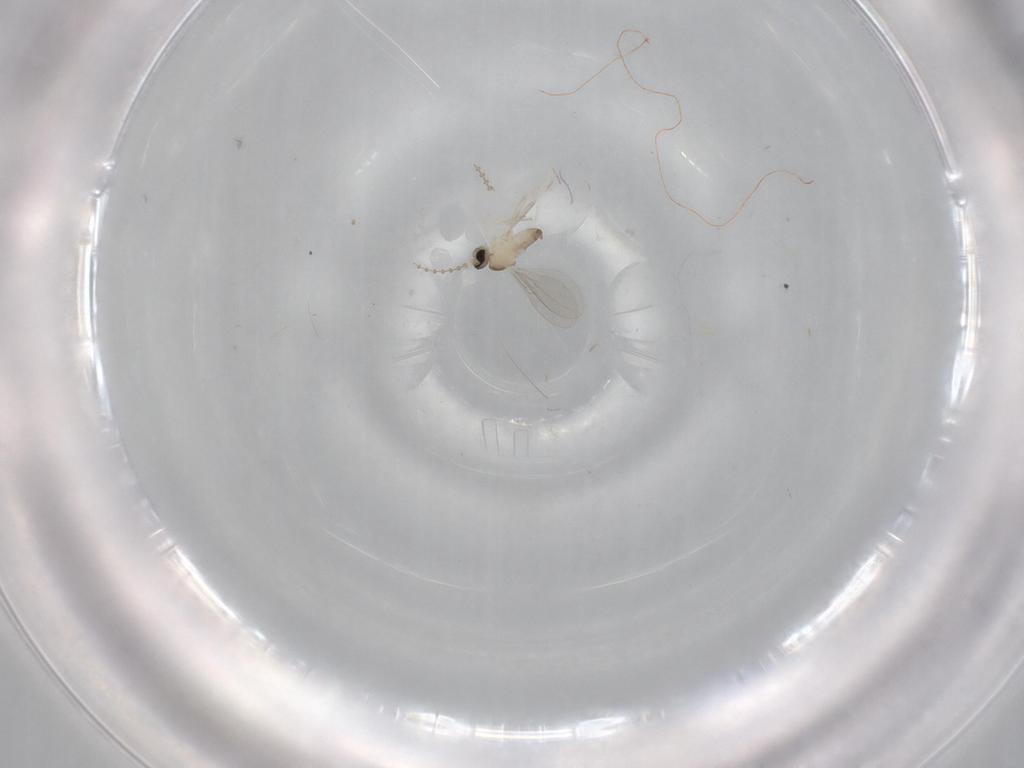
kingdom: Animalia
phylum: Arthropoda
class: Insecta
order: Diptera
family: Cecidomyiidae
